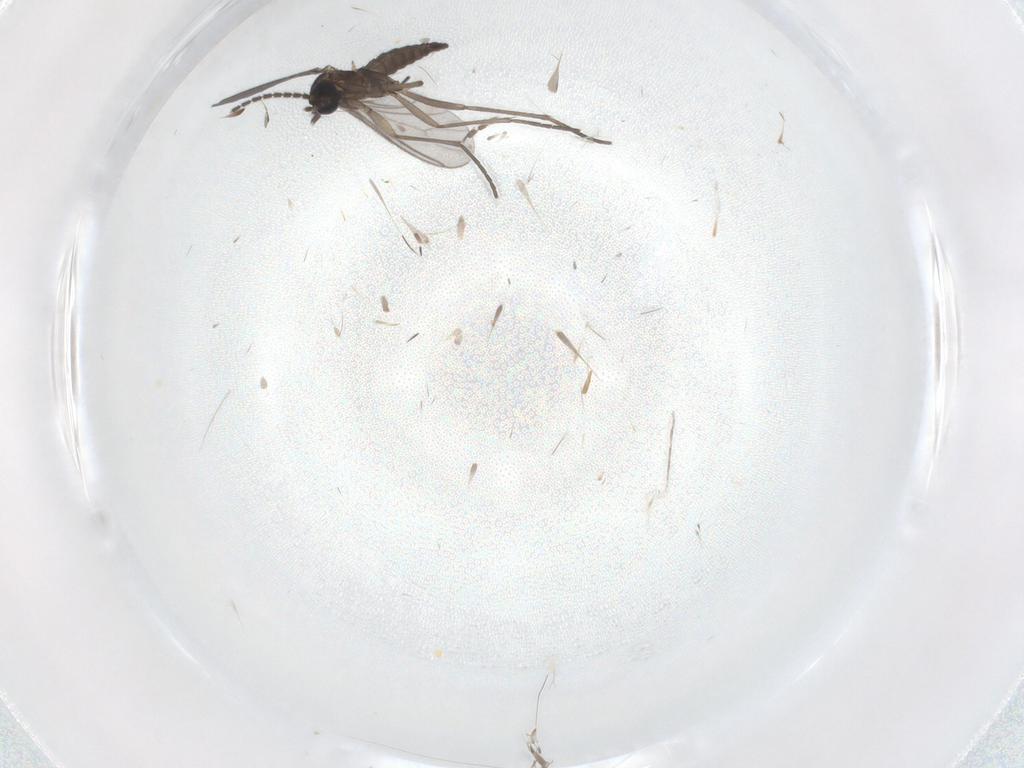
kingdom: Animalia
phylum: Arthropoda
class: Insecta
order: Diptera
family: Sciaridae
